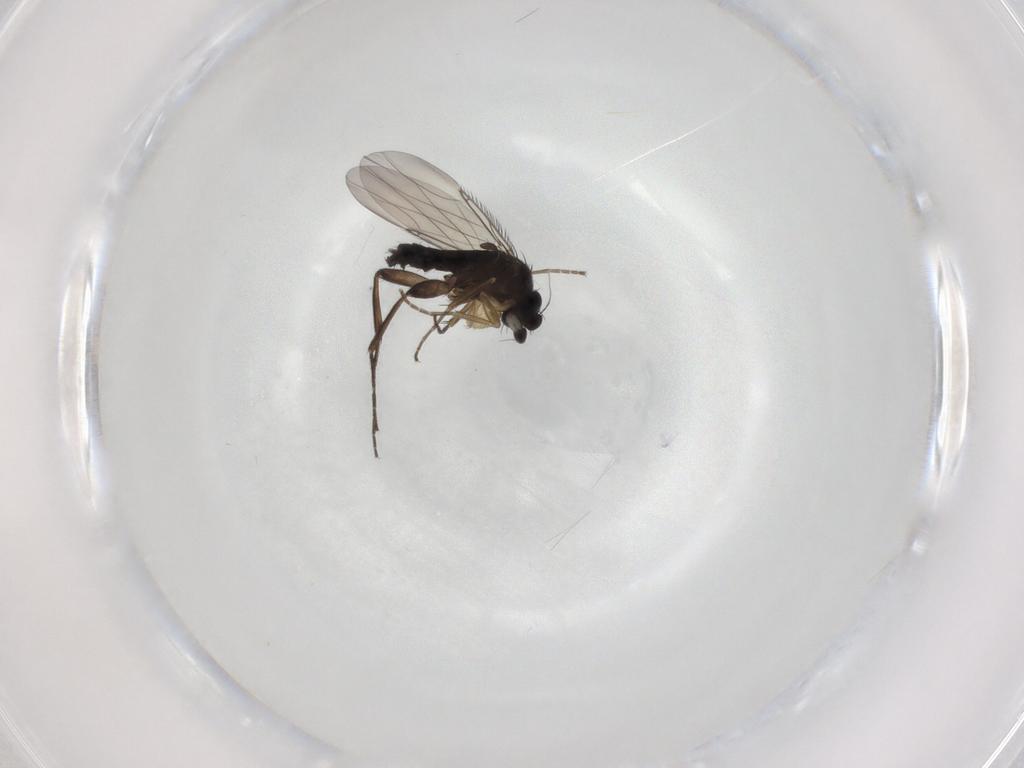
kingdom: Animalia
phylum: Arthropoda
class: Insecta
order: Diptera
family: Phoridae
